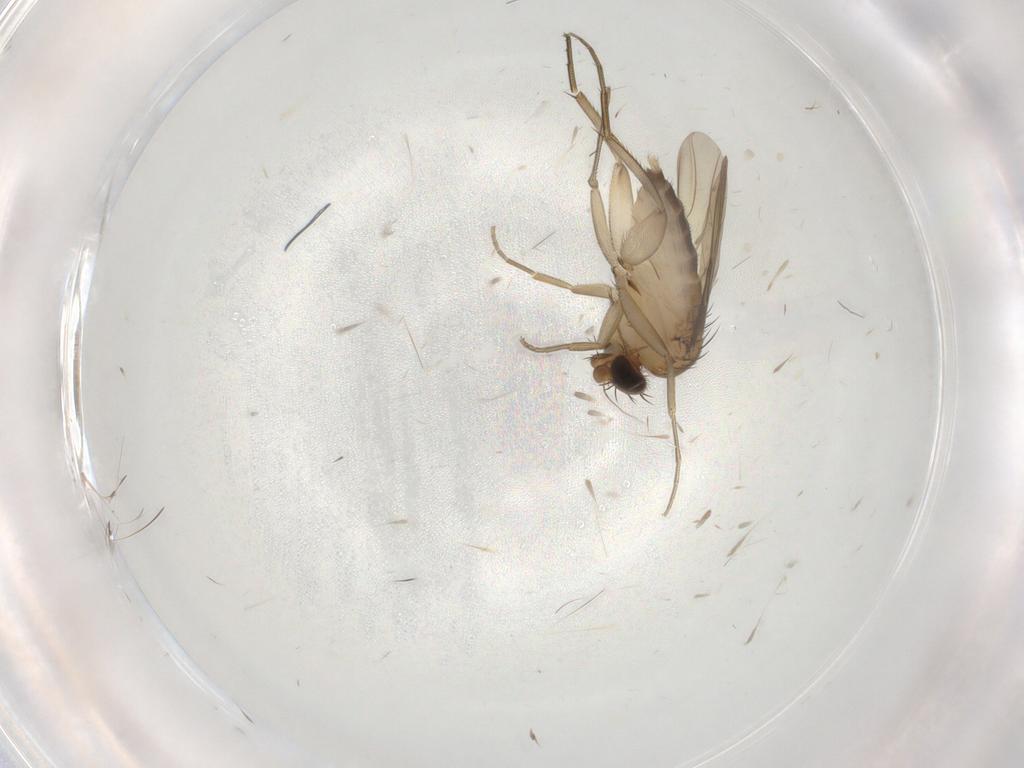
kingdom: Animalia
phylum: Arthropoda
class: Insecta
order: Diptera
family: Phoridae
